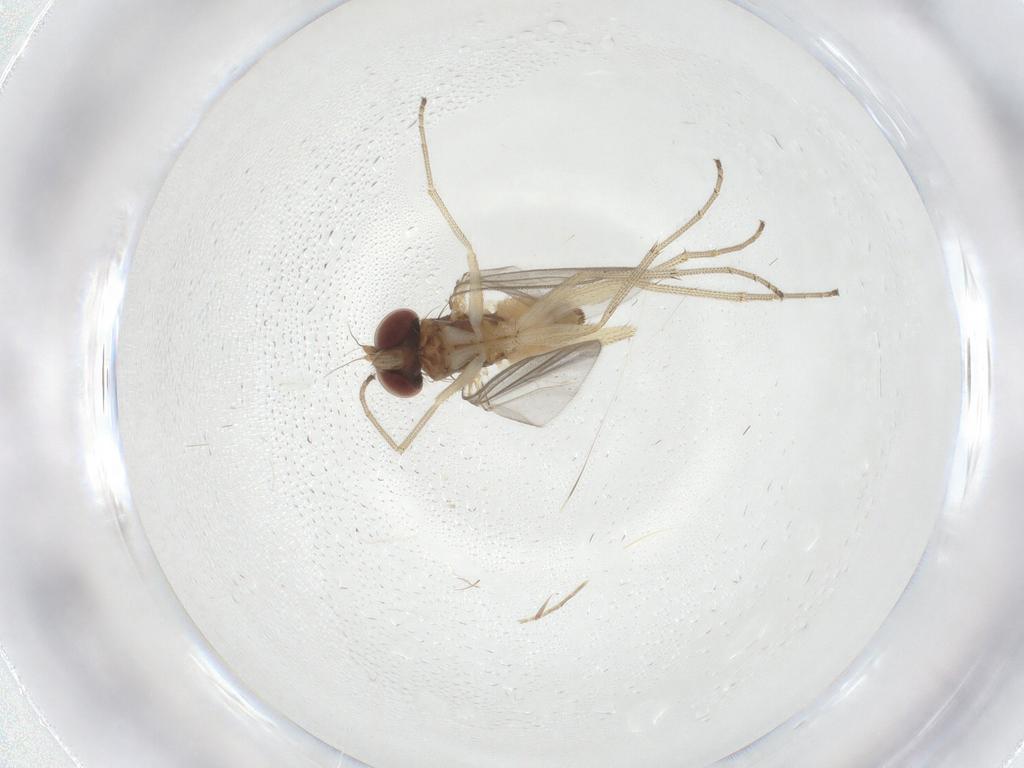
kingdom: Animalia
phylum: Arthropoda
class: Insecta
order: Diptera
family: Dolichopodidae
